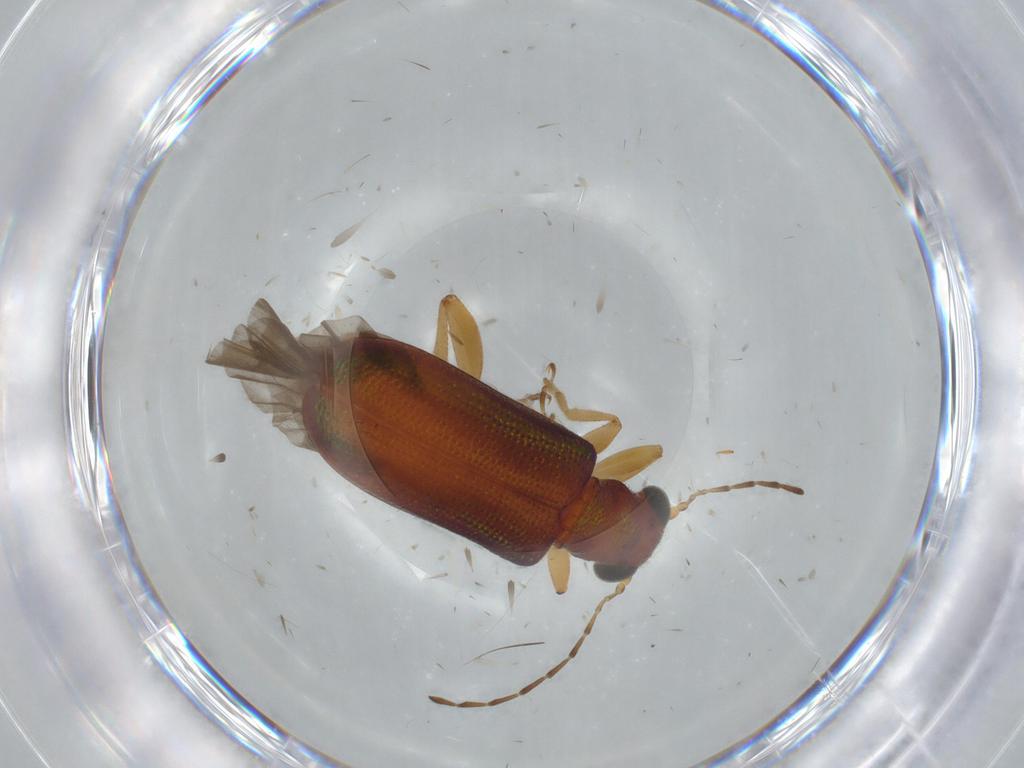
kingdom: Animalia
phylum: Arthropoda
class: Insecta
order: Coleoptera
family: Chrysomelidae
